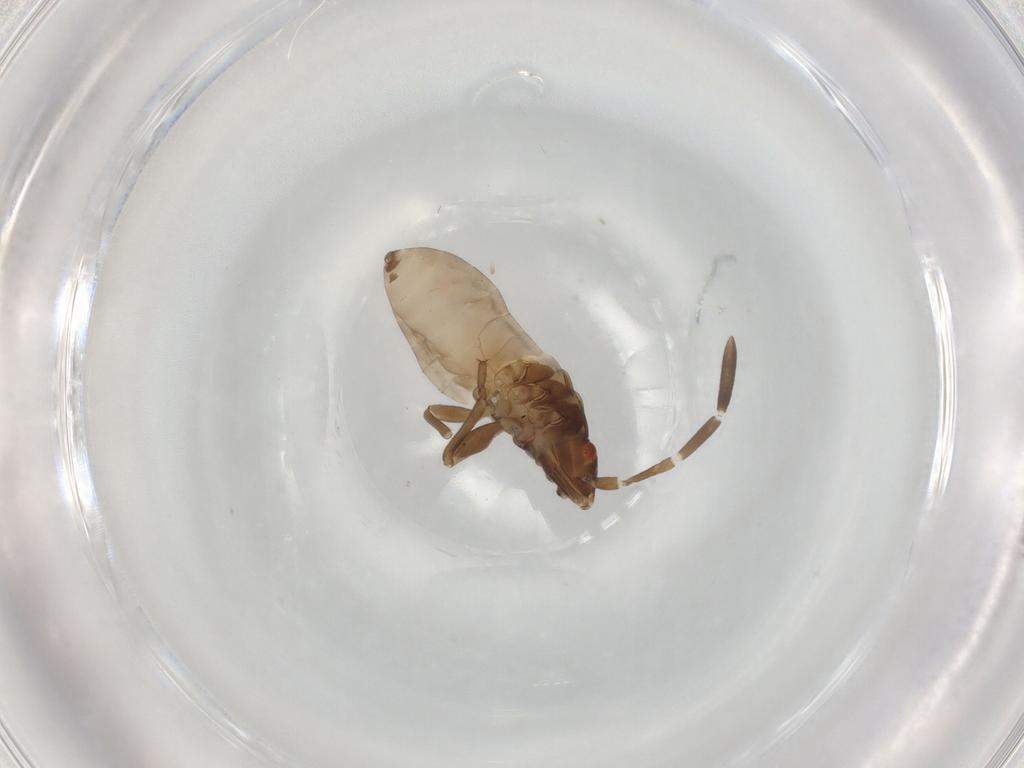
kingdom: Animalia
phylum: Arthropoda
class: Insecta
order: Hemiptera
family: Rhyparochromidae
